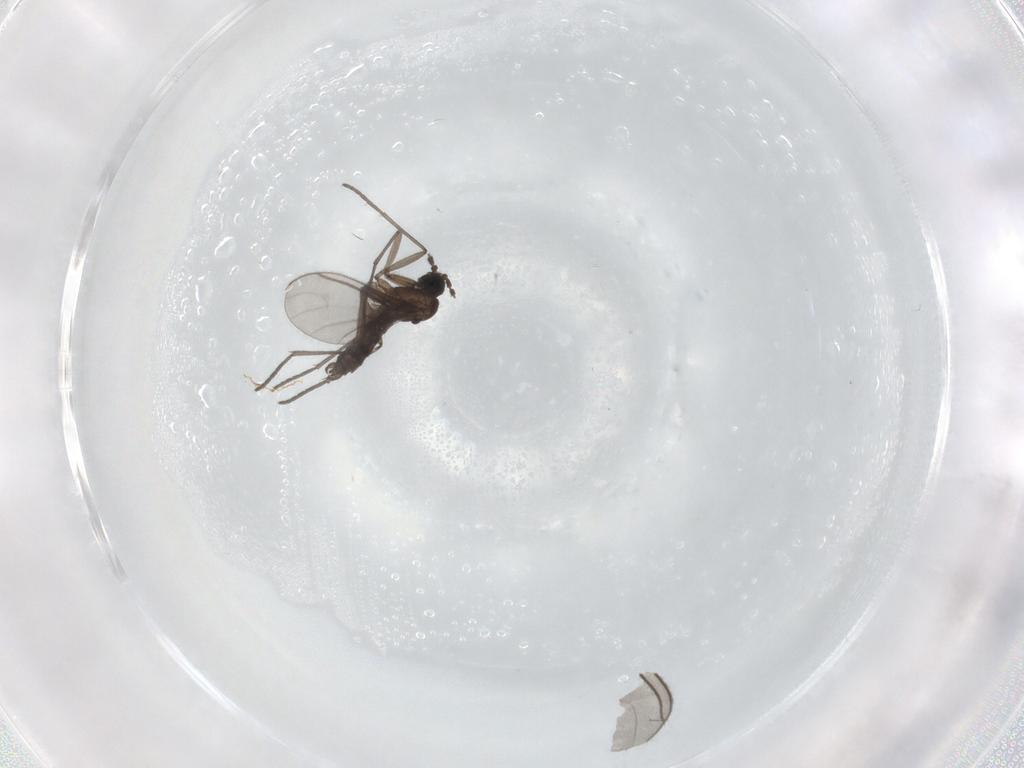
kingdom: Animalia
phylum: Arthropoda
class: Insecta
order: Diptera
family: Cecidomyiidae
